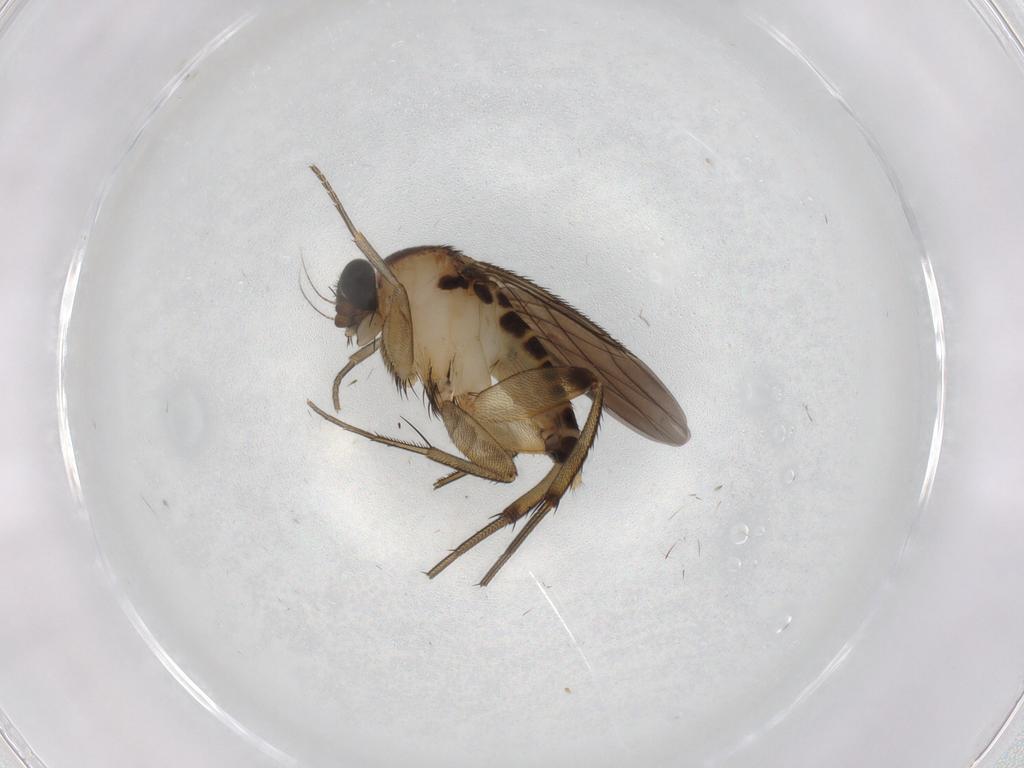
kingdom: Animalia
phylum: Arthropoda
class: Insecta
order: Diptera
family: Phoridae
